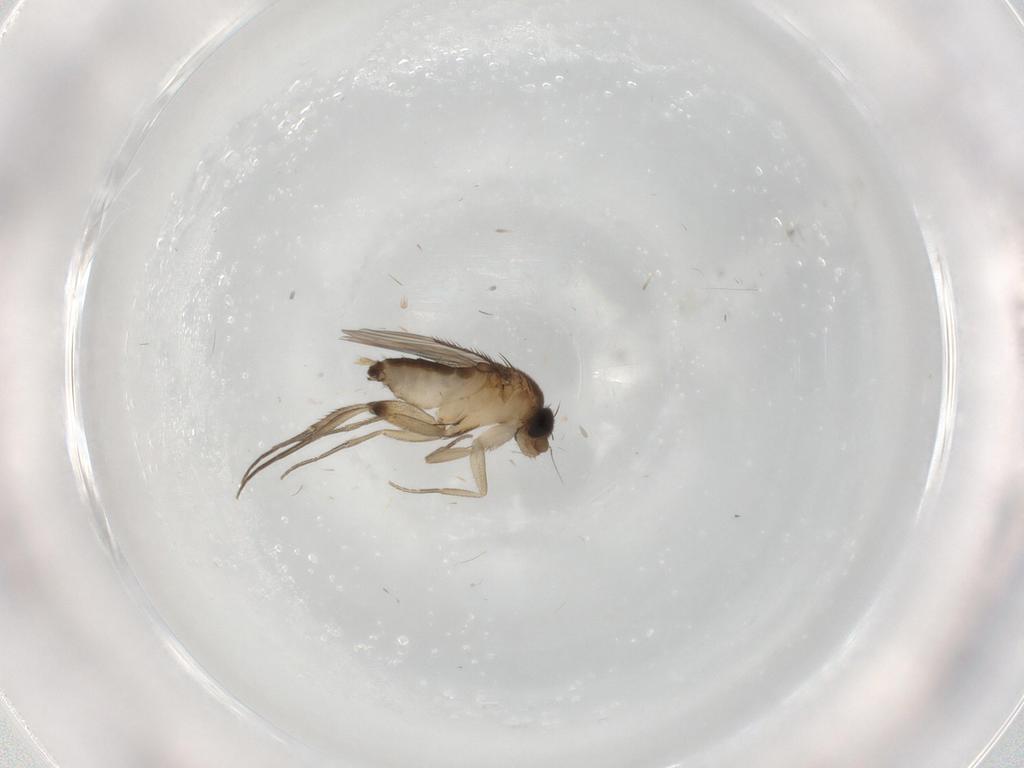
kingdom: Animalia
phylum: Arthropoda
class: Insecta
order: Diptera
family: Phoridae
